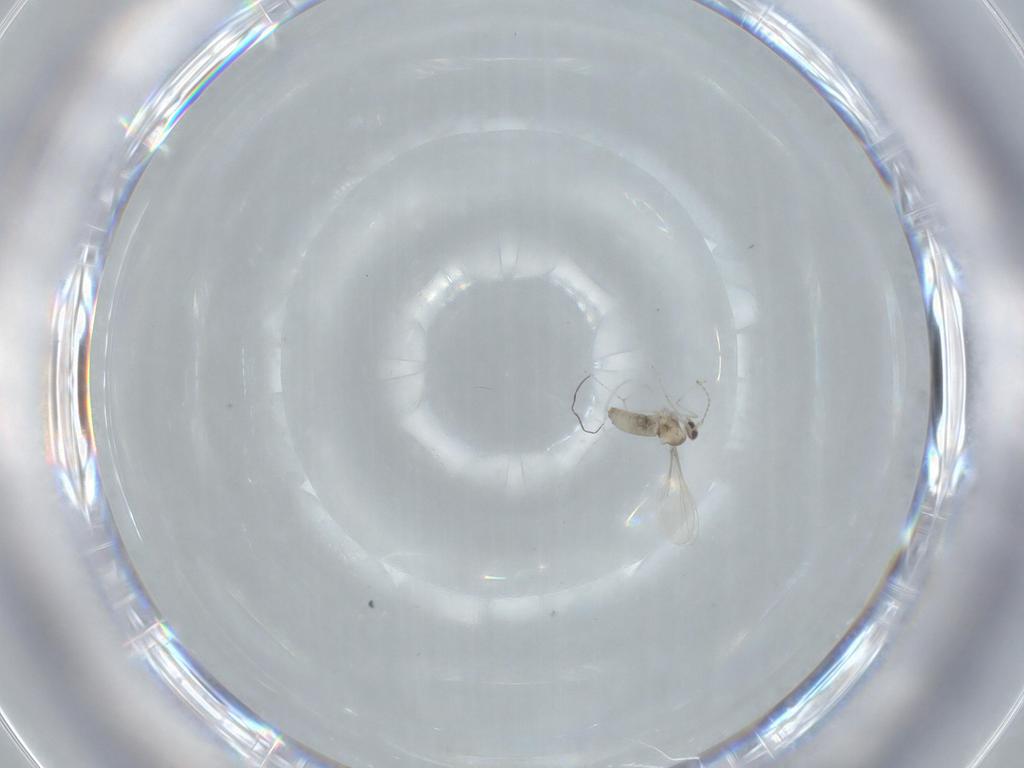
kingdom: Animalia
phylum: Arthropoda
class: Insecta
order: Diptera
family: Cecidomyiidae
